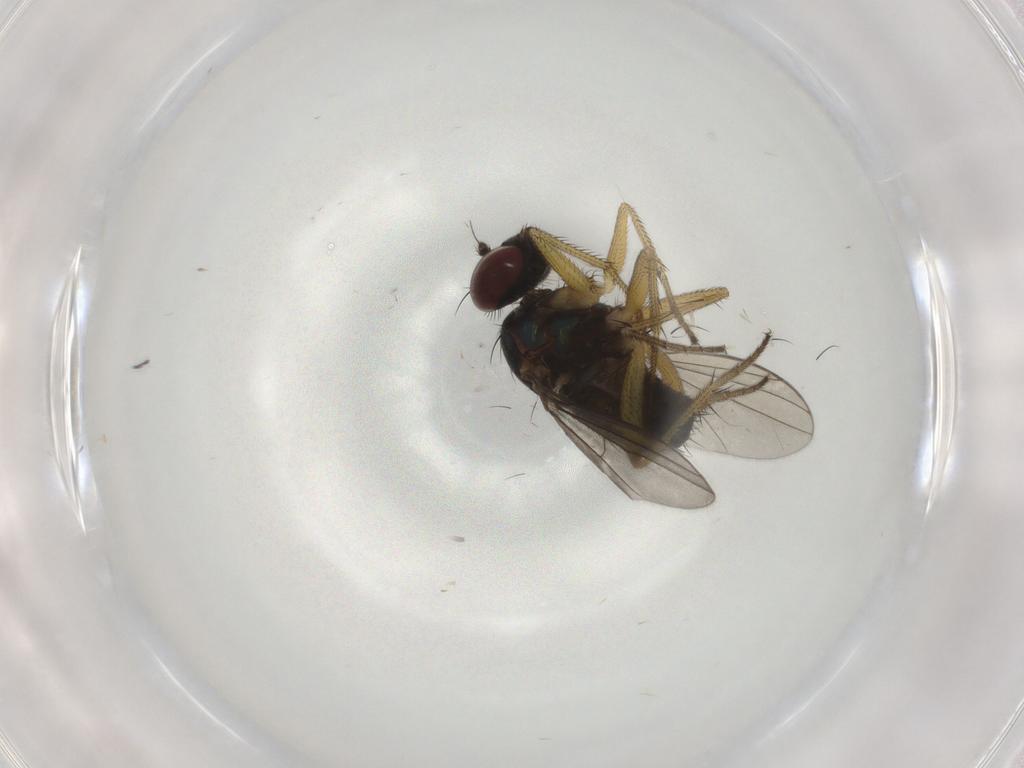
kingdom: Animalia
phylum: Arthropoda
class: Insecta
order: Diptera
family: Dolichopodidae
